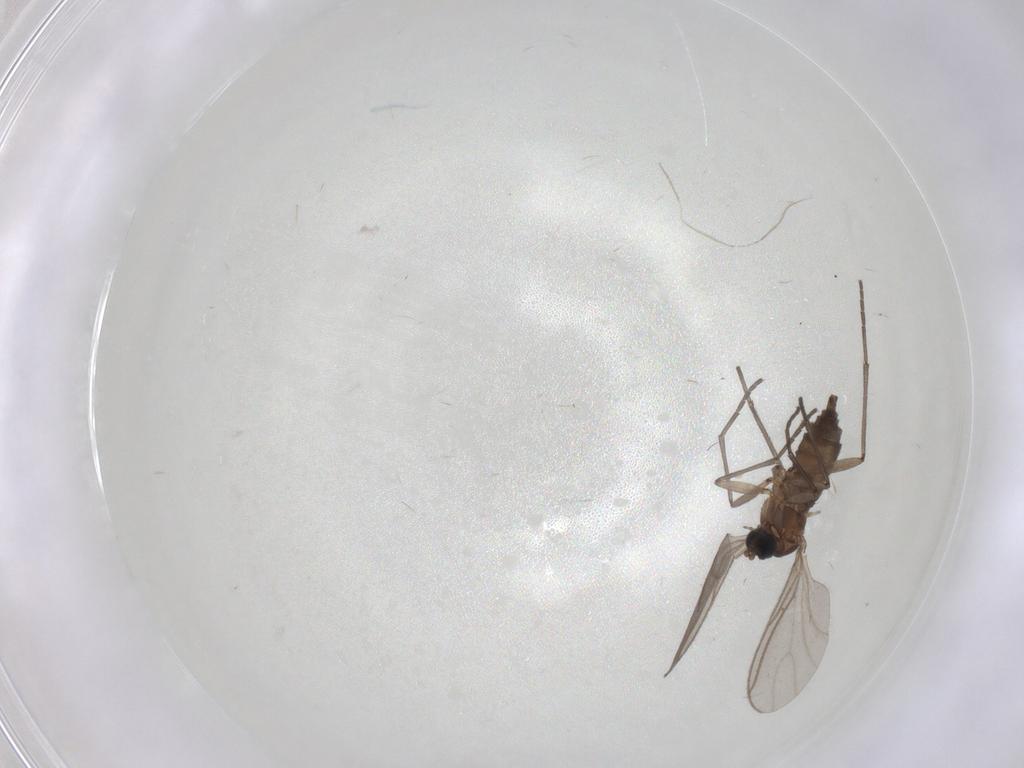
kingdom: Animalia
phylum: Arthropoda
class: Insecta
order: Diptera
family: Sciaridae
